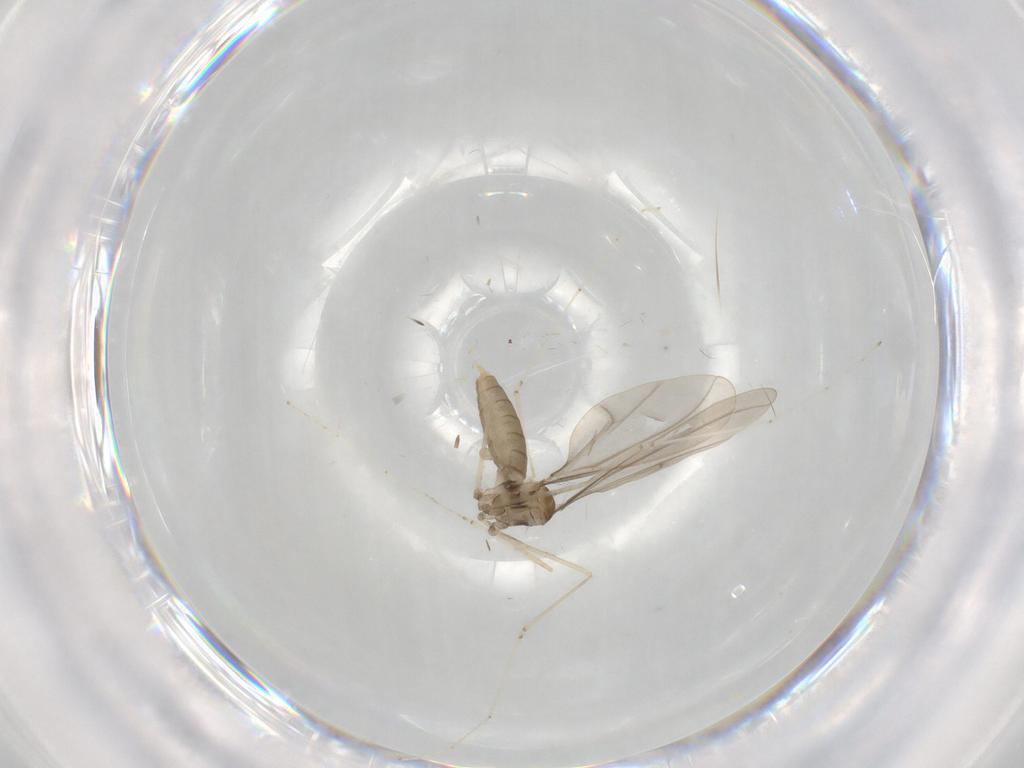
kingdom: Animalia
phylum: Arthropoda
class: Insecta
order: Diptera
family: Cecidomyiidae
